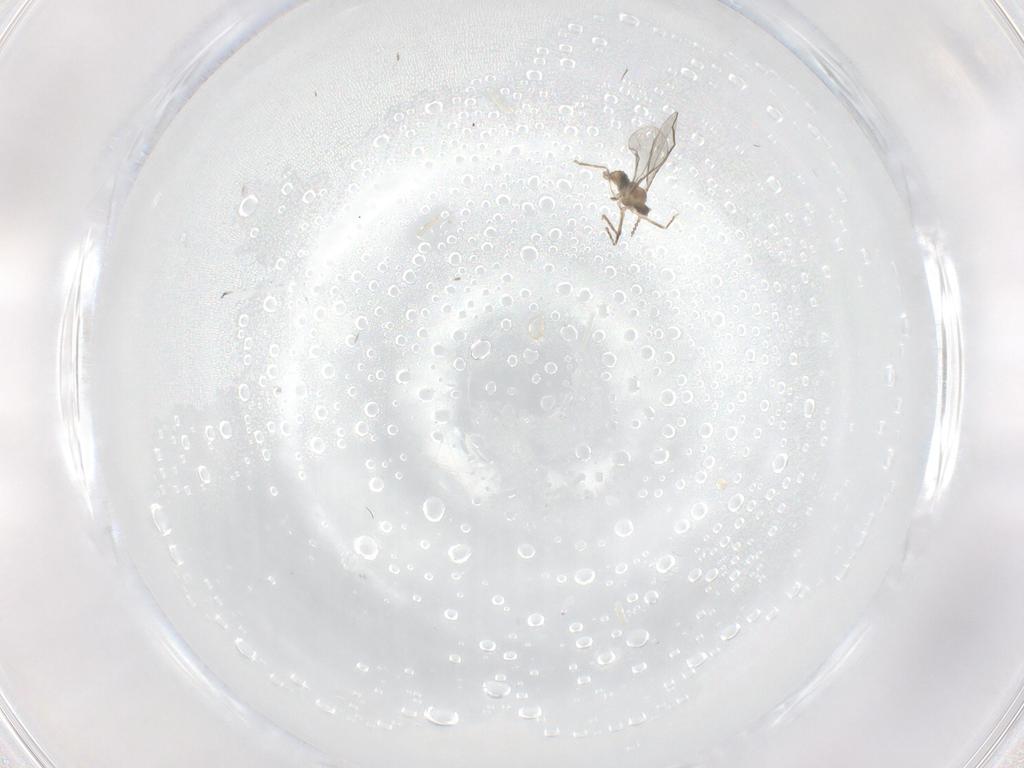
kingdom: Animalia
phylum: Arthropoda
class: Insecta
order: Diptera
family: Cecidomyiidae
